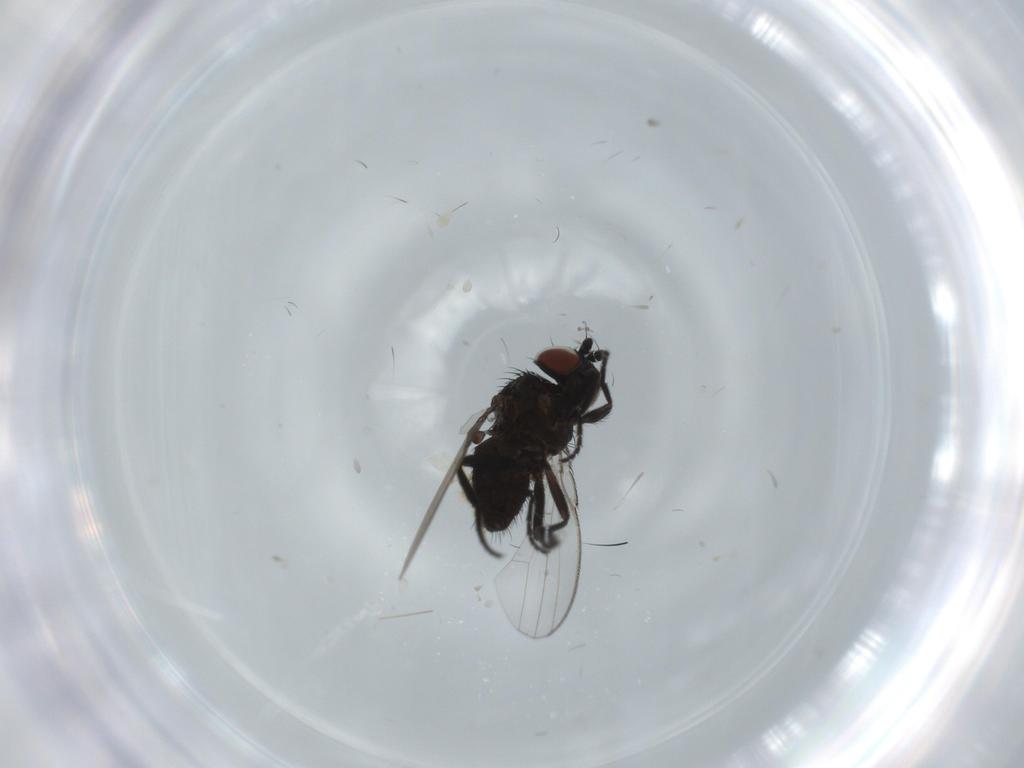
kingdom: Animalia
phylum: Arthropoda
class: Insecta
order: Diptera
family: Milichiidae
